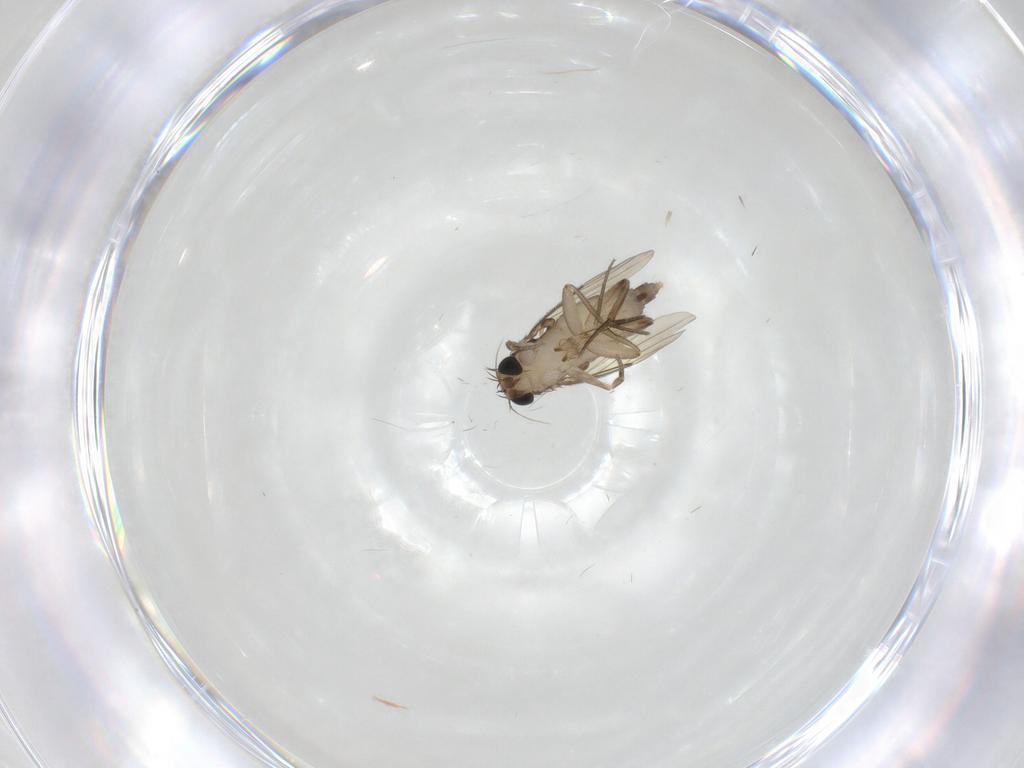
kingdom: Animalia
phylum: Arthropoda
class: Insecta
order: Diptera
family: Phoridae
